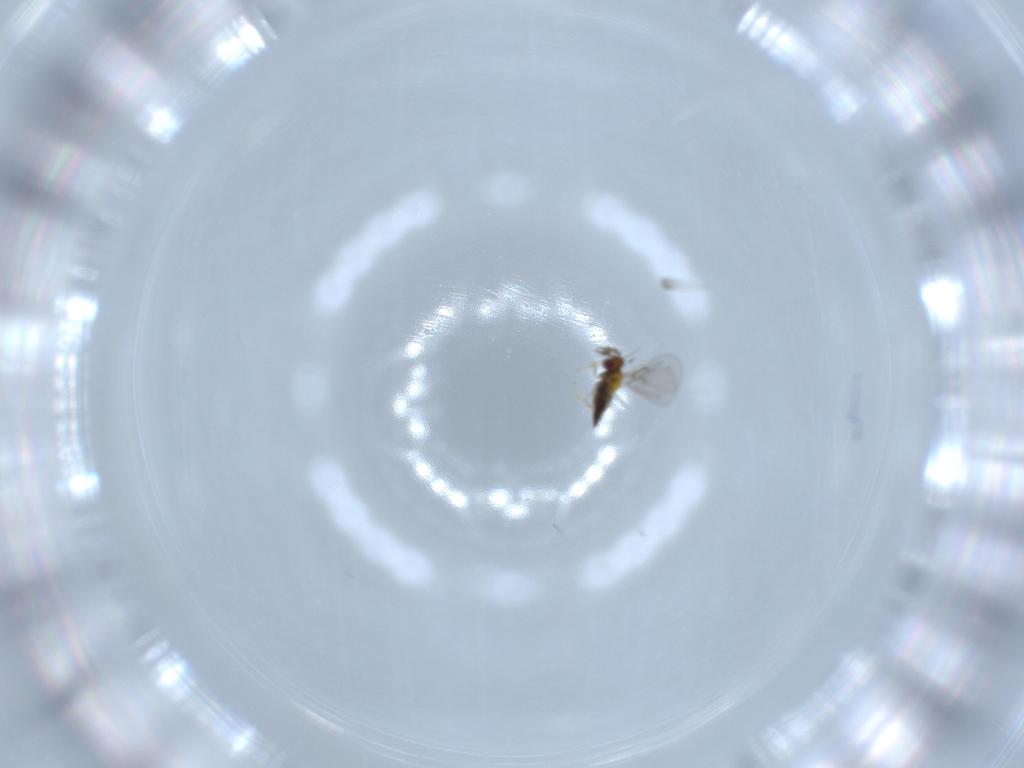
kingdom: Animalia
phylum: Arthropoda
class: Insecta
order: Hymenoptera
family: Trichogrammatidae
